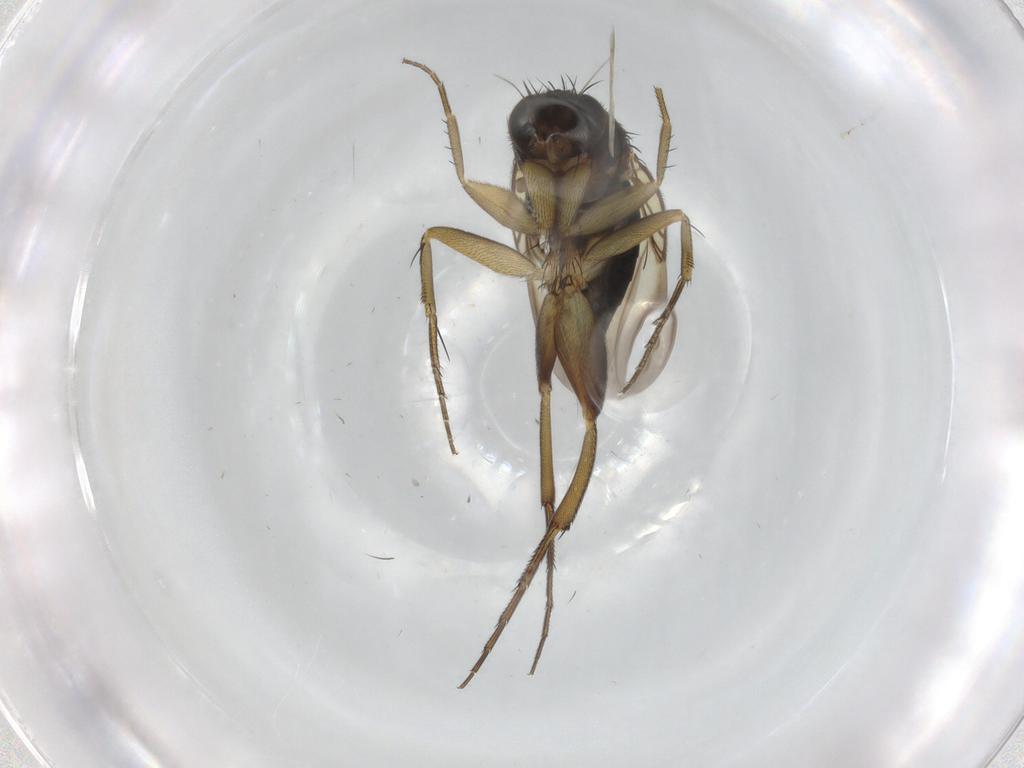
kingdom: Animalia
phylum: Arthropoda
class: Insecta
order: Diptera
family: Phoridae
